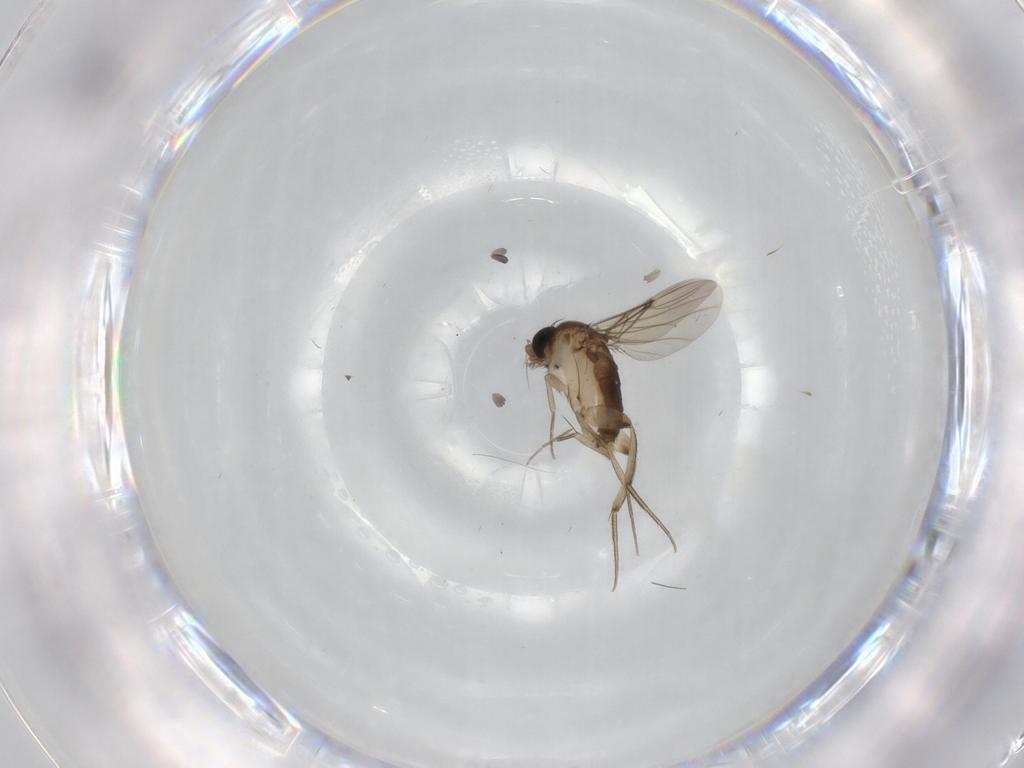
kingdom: Animalia
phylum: Arthropoda
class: Insecta
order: Diptera
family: Phoridae
